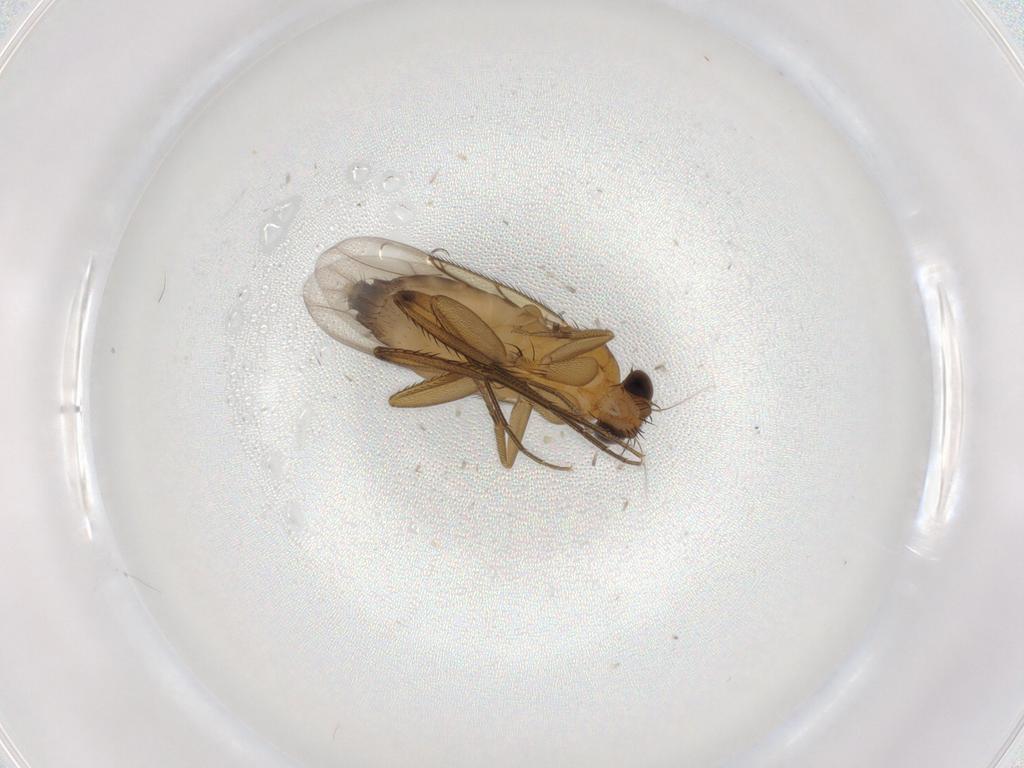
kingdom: Animalia
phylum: Arthropoda
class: Insecta
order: Diptera
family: Phoridae
